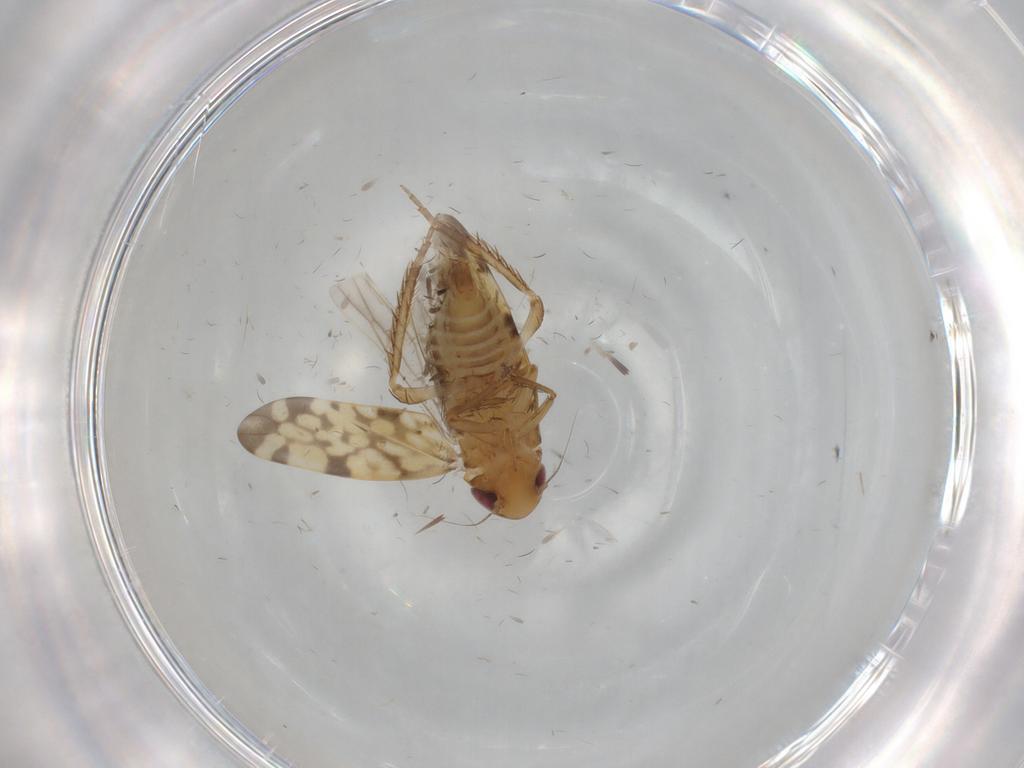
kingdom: Animalia
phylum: Arthropoda
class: Insecta
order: Hemiptera
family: Cicadellidae
